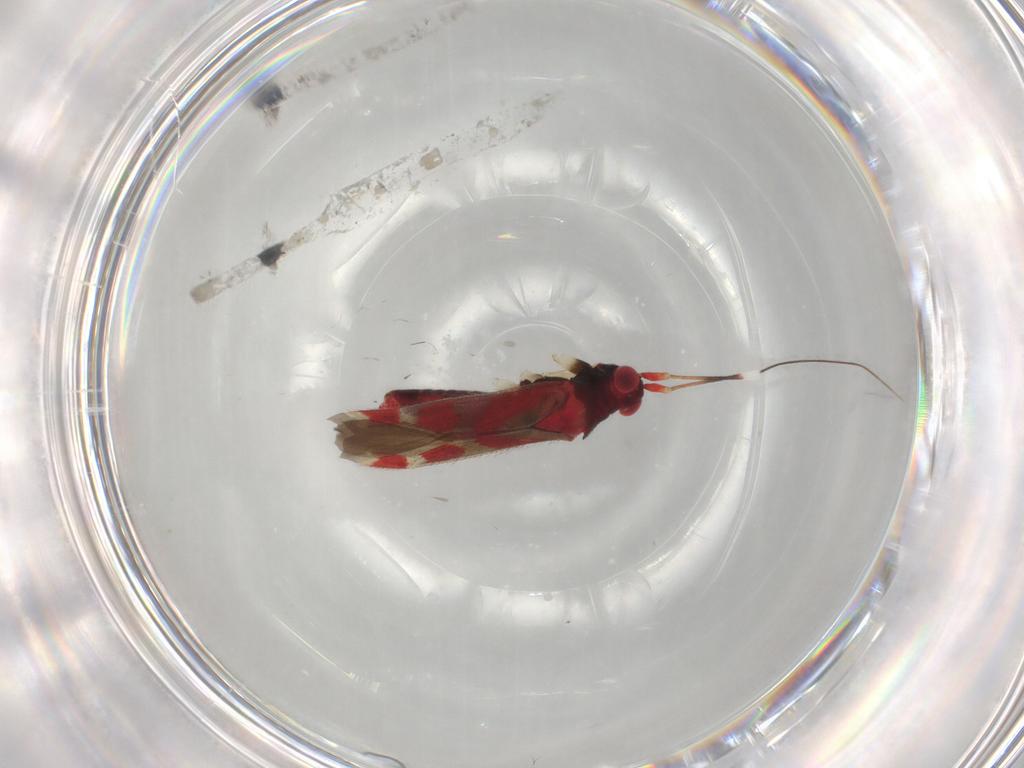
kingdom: Animalia
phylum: Arthropoda
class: Insecta
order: Hemiptera
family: Miridae
